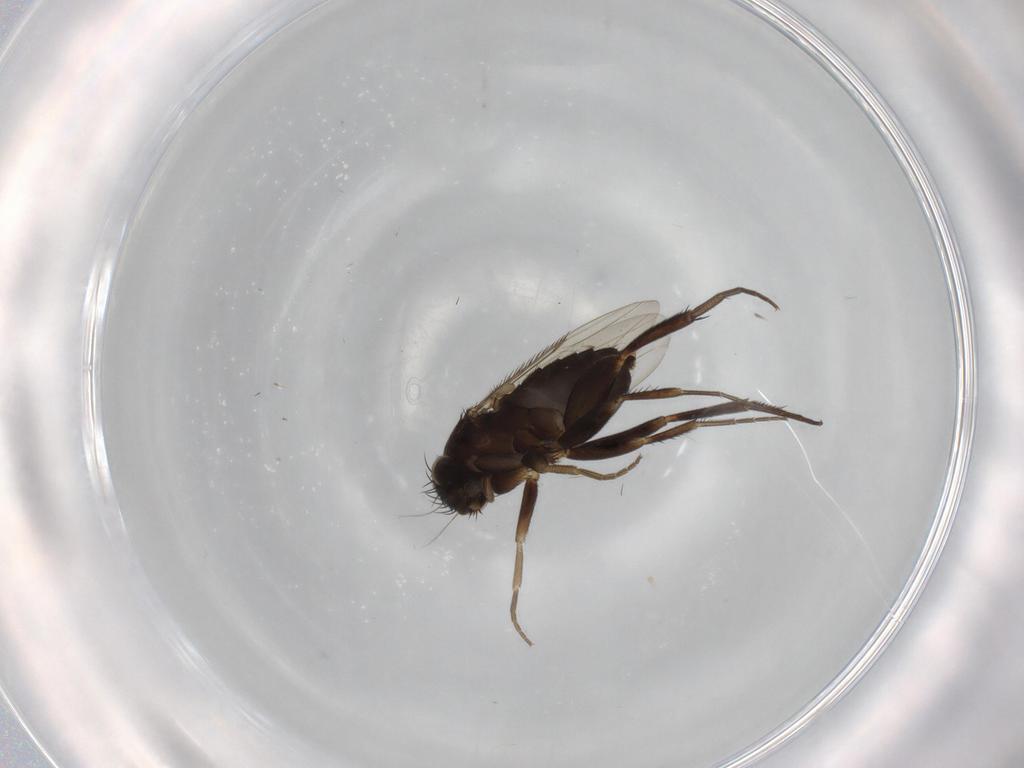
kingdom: Animalia
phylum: Arthropoda
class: Insecta
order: Diptera
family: Phoridae
